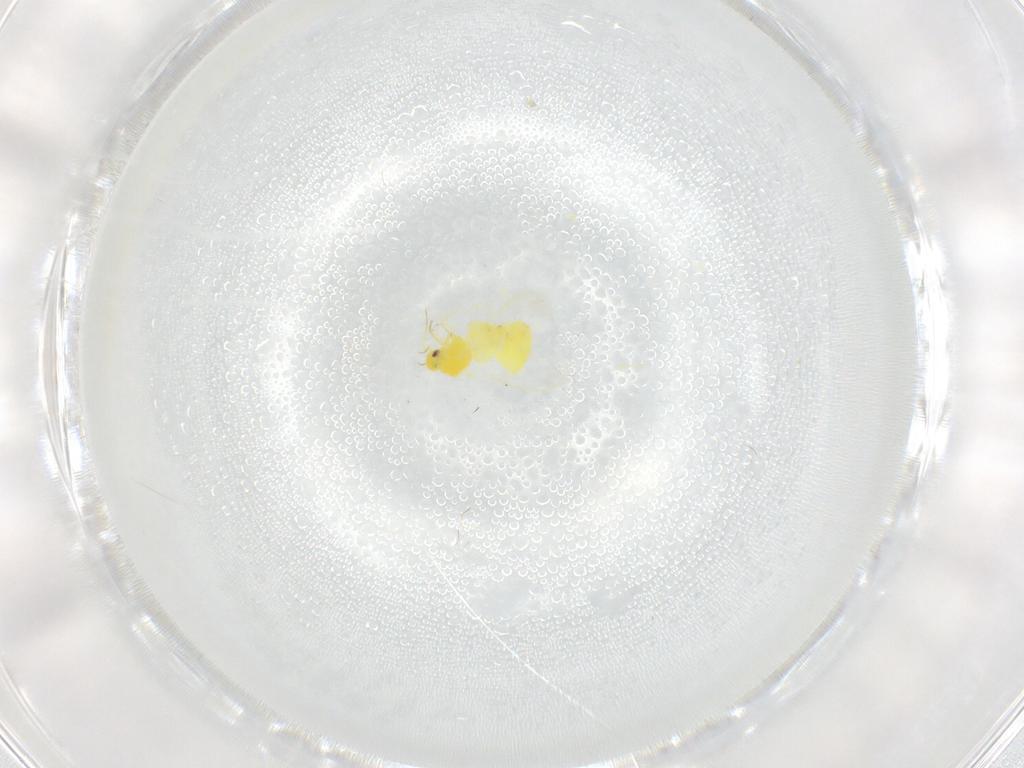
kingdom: Animalia
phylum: Arthropoda
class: Insecta
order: Hemiptera
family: Aleyrodidae
